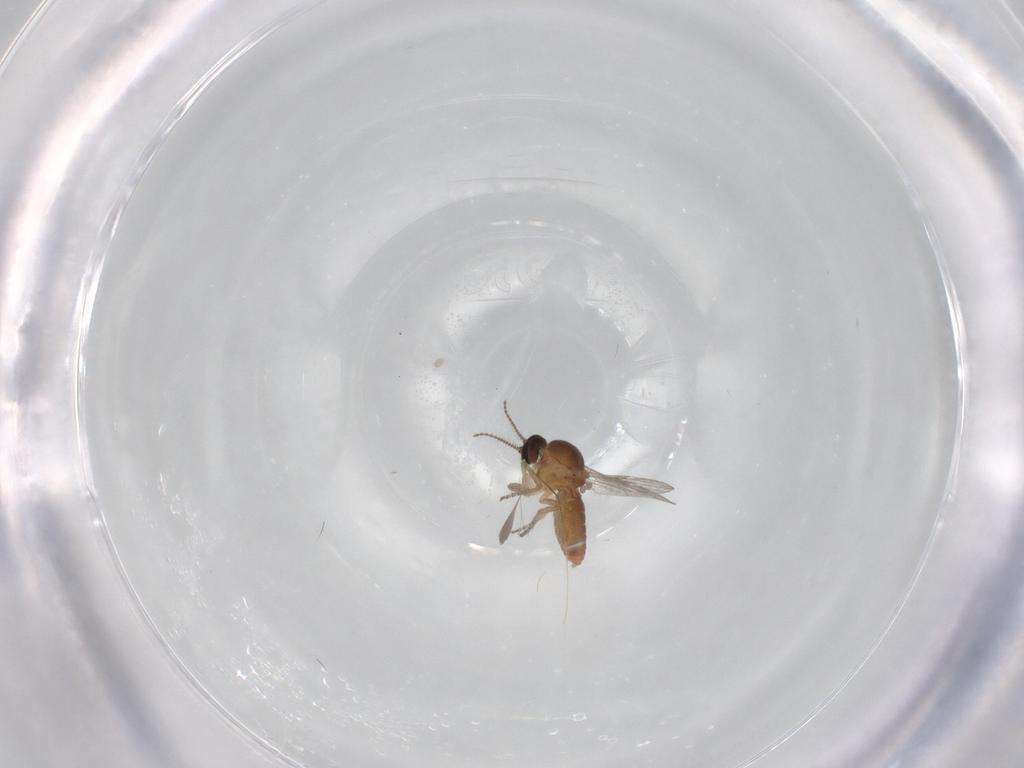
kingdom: Animalia
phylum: Arthropoda
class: Insecta
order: Diptera
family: Ceratopogonidae
